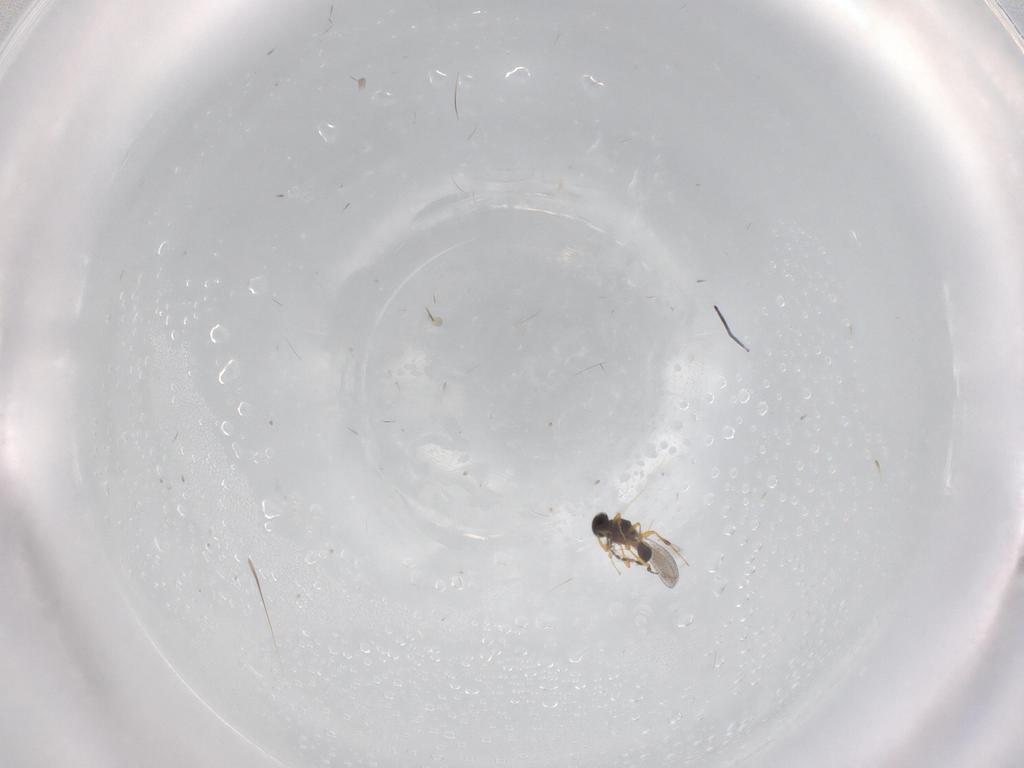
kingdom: Animalia
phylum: Arthropoda
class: Insecta
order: Hymenoptera
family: Platygastridae
